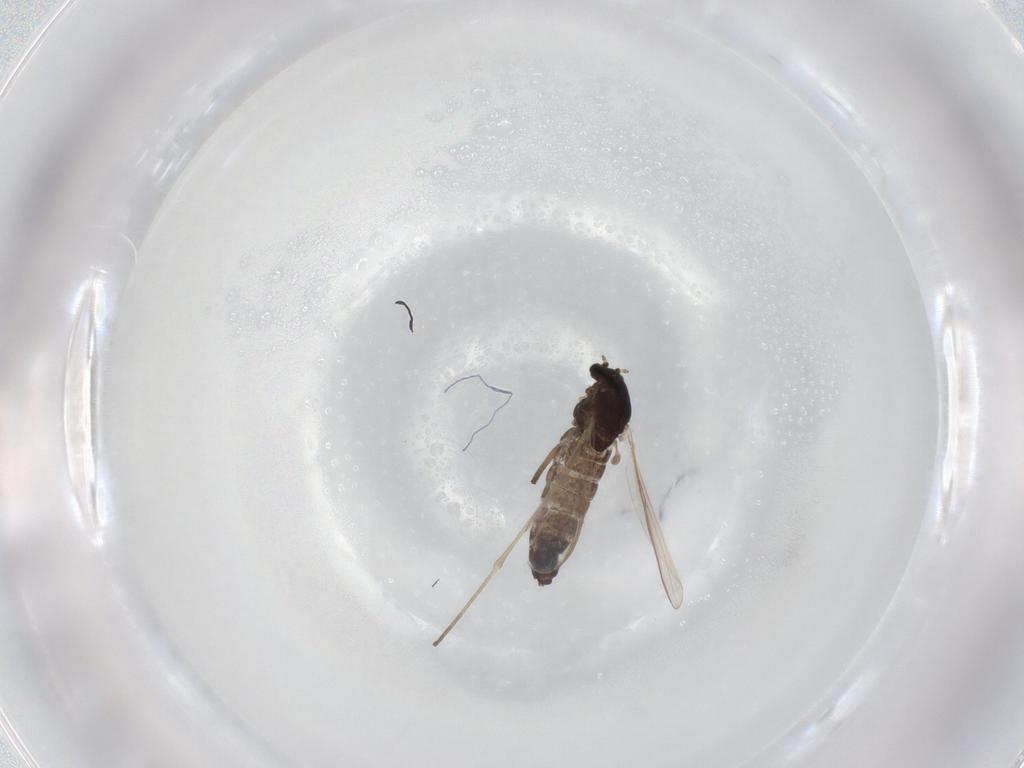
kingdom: Animalia
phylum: Arthropoda
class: Insecta
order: Diptera
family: Chironomidae
